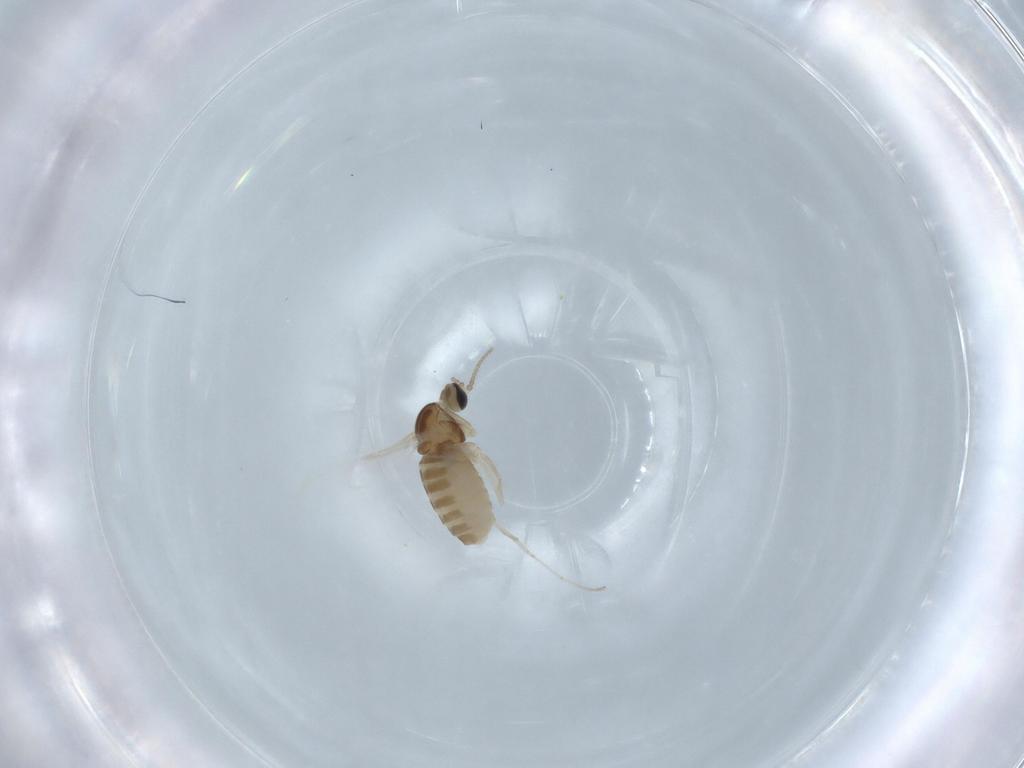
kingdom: Animalia
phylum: Arthropoda
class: Insecta
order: Diptera
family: Cecidomyiidae
